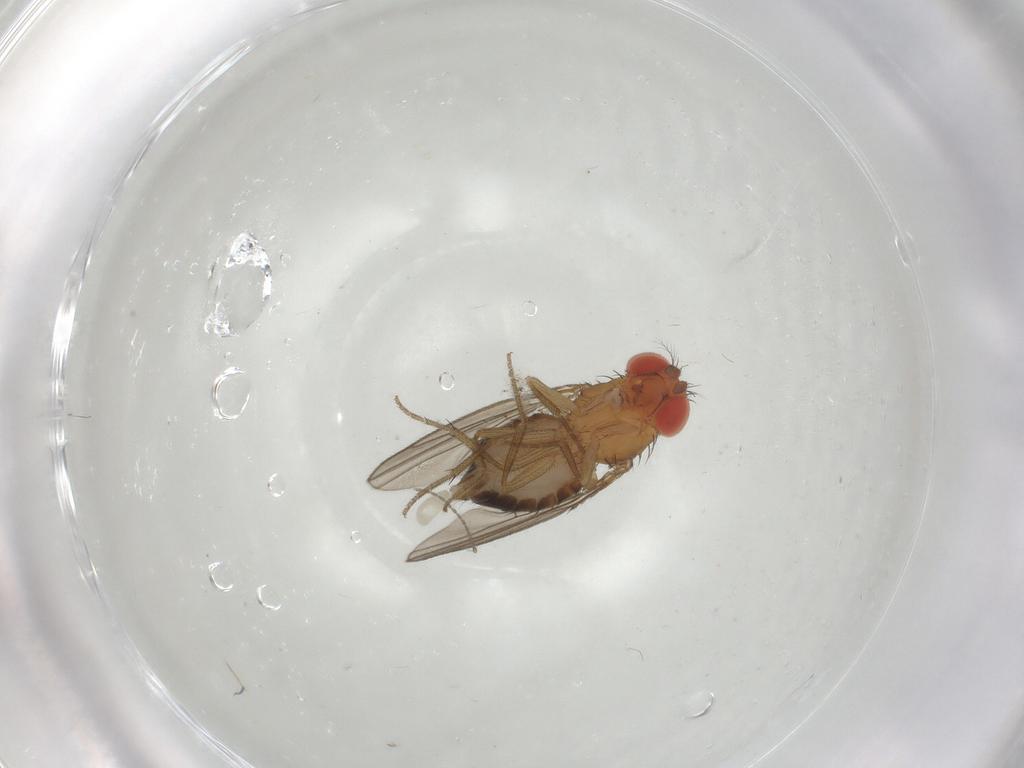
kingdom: Animalia
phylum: Arthropoda
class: Insecta
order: Diptera
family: Drosophilidae
